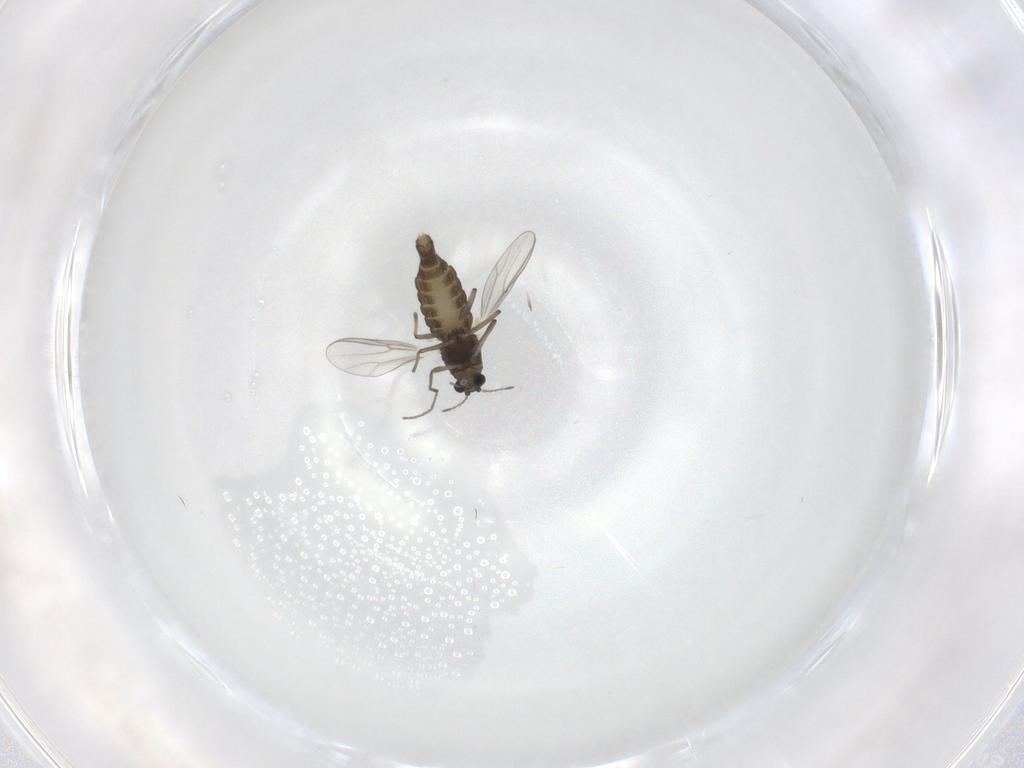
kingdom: Animalia
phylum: Arthropoda
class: Insecta
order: Diptera
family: Chironomidae
